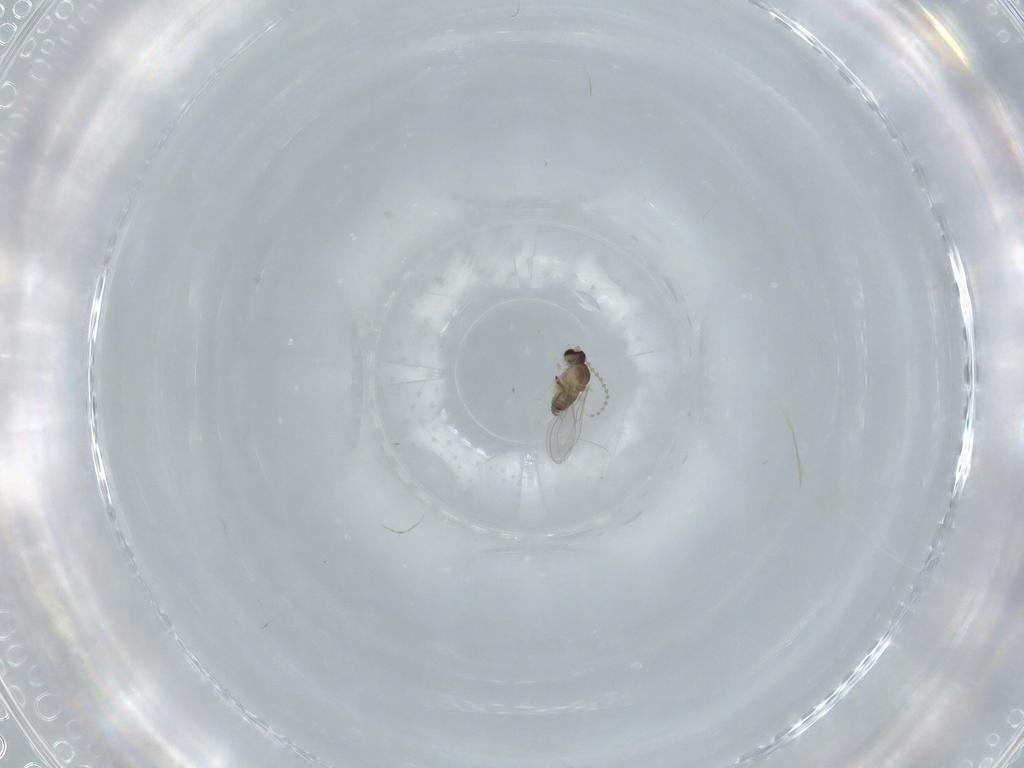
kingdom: Animalia
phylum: Arthropoda
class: Insecta
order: Diptera
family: Cecidomyiidae
